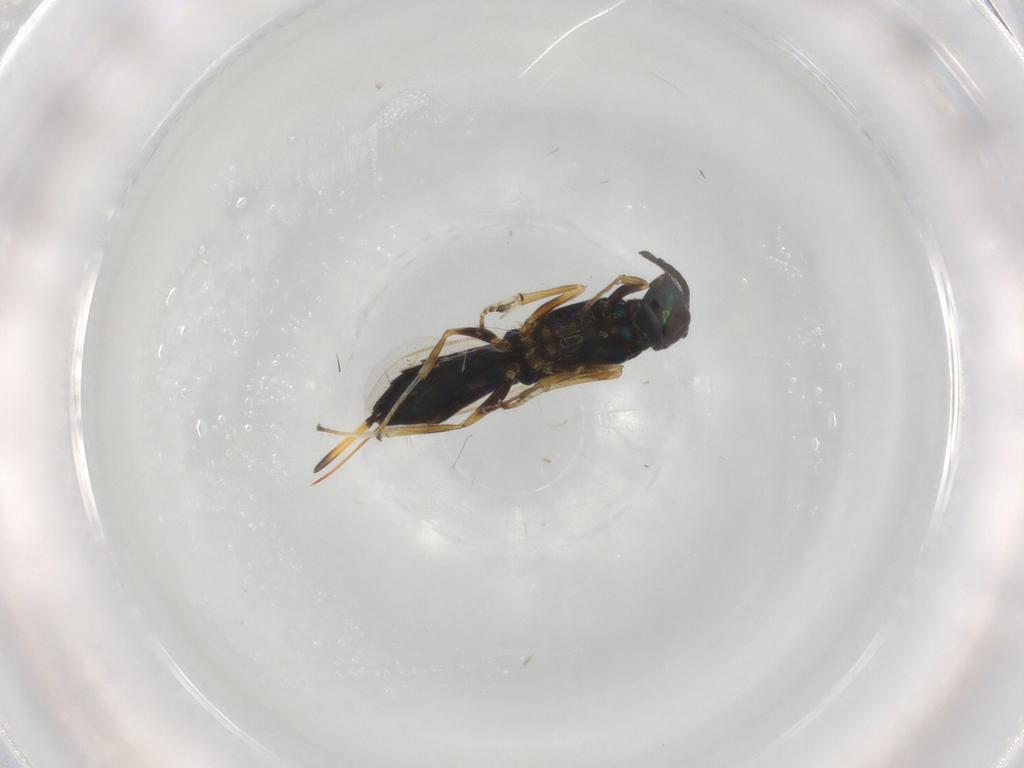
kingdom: Animalia
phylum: Arthropoda
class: Insecta
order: Hymenoptera
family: Eupelmidae
